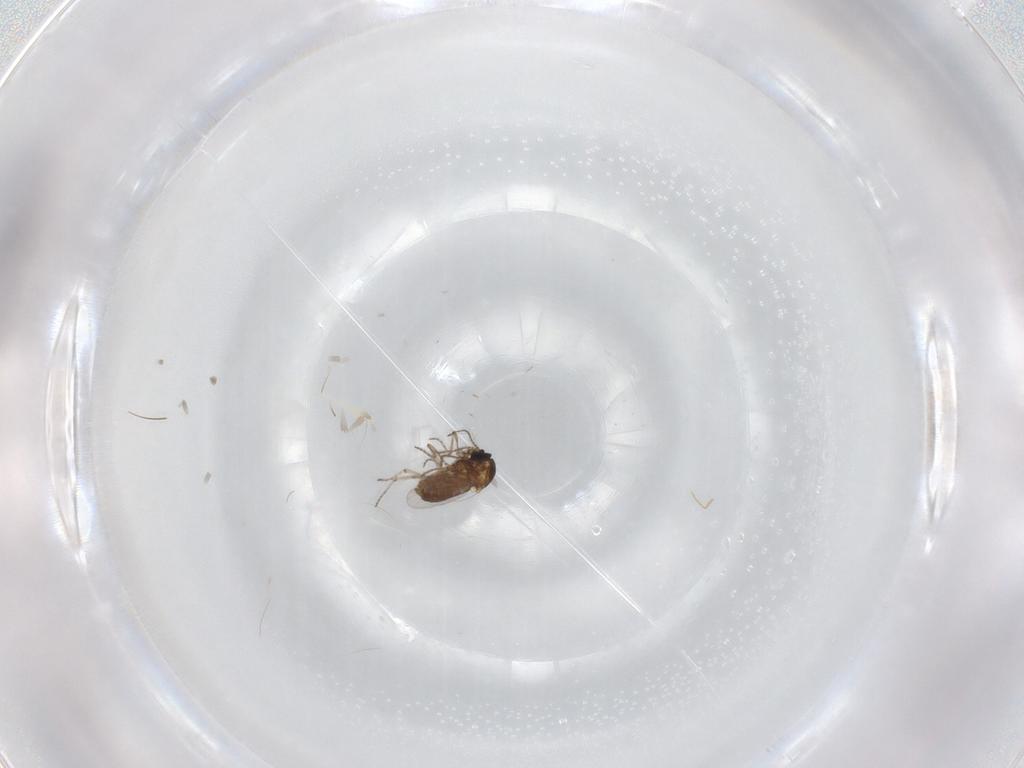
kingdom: Animalia
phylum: Arthropoda
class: Insecta
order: Diptera
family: Ceratopogonidae
